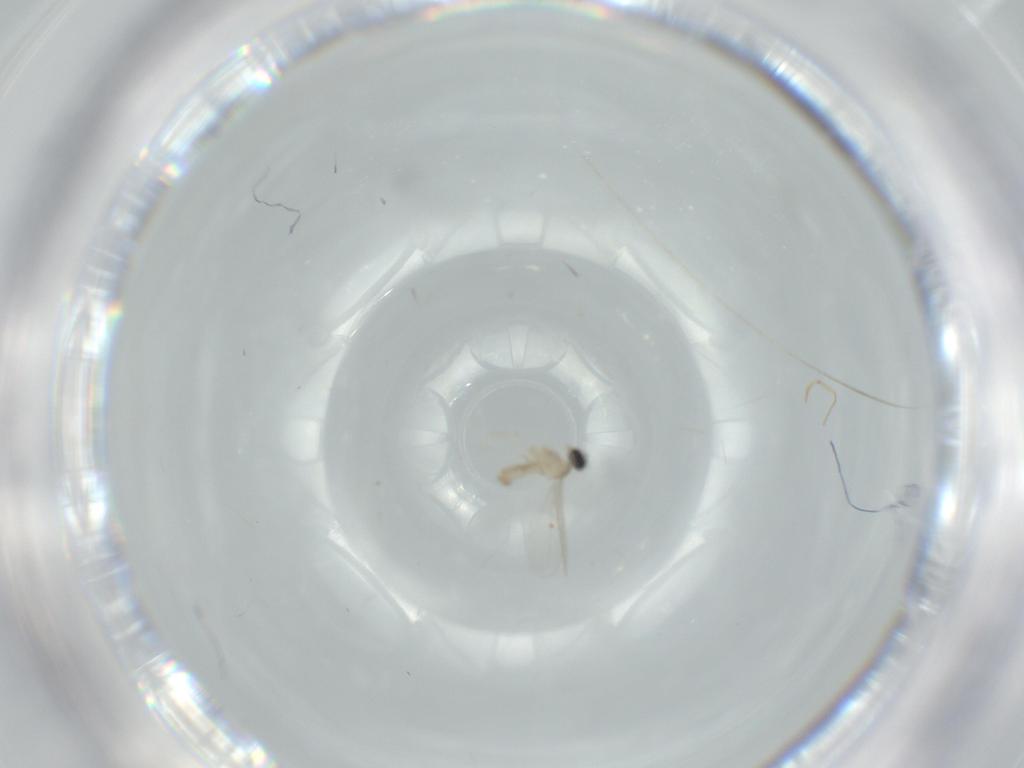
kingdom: Animalia
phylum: Arthropoda
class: Insecta
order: Diptera
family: Cecidomyiidae
